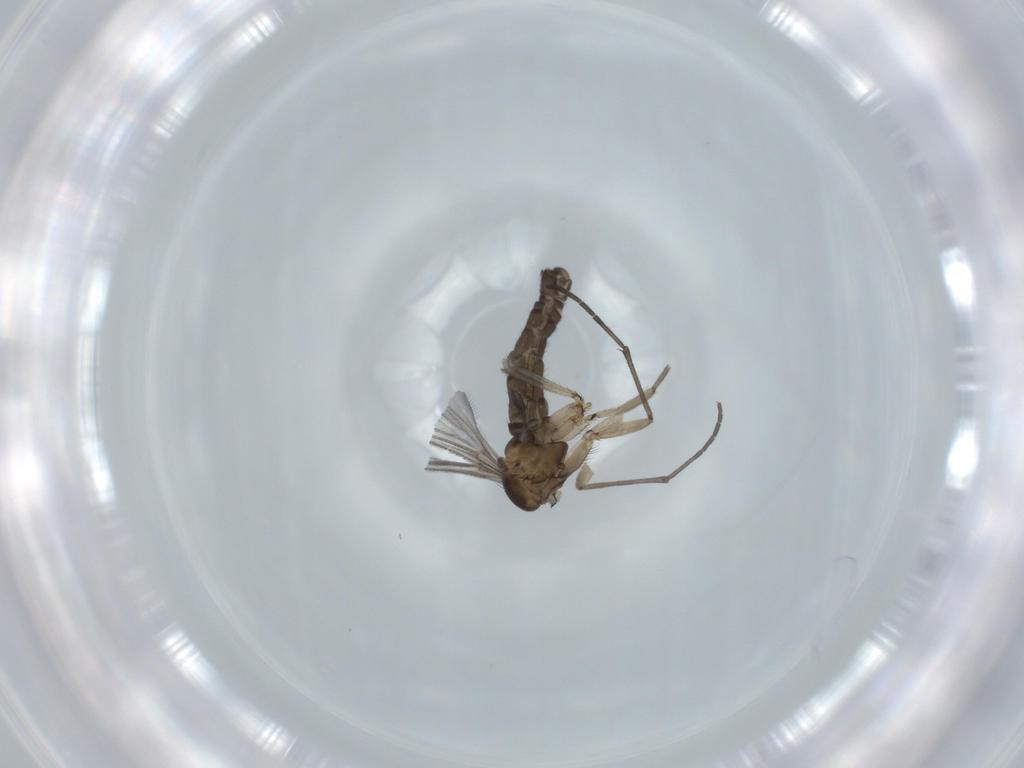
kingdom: Animalia
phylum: Arthropoda
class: Insecta
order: Diptera
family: Sciaridae
